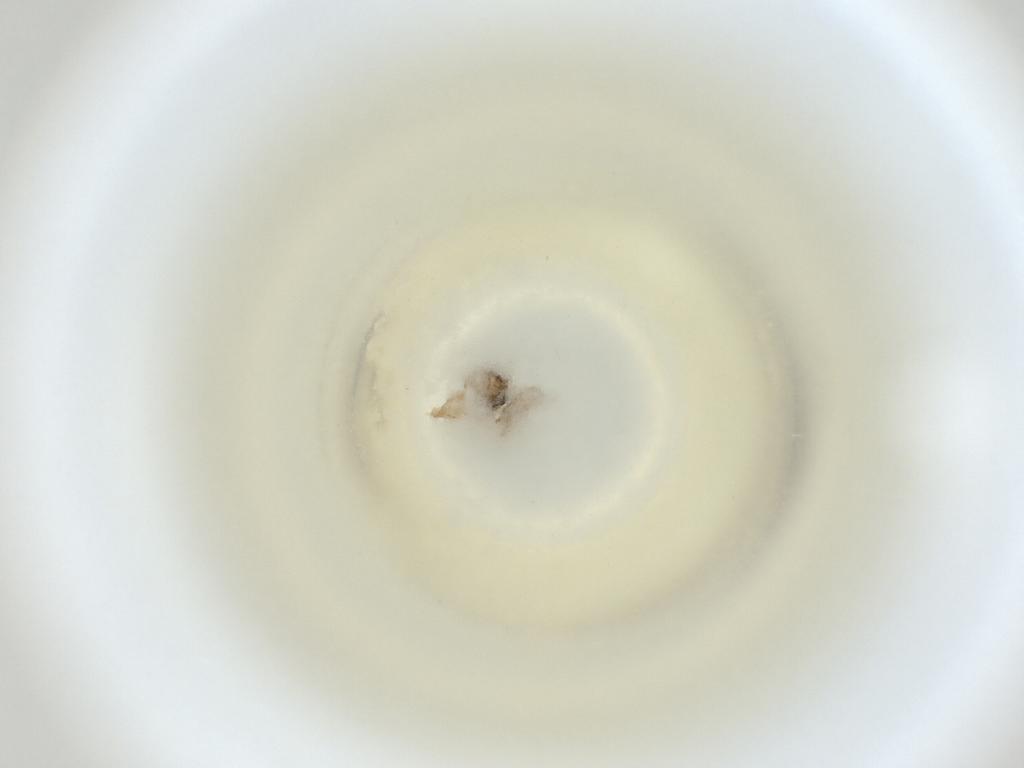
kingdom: Animalia
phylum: Arthropoda
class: Insecta
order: Diptera
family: Cecidomyiidae
